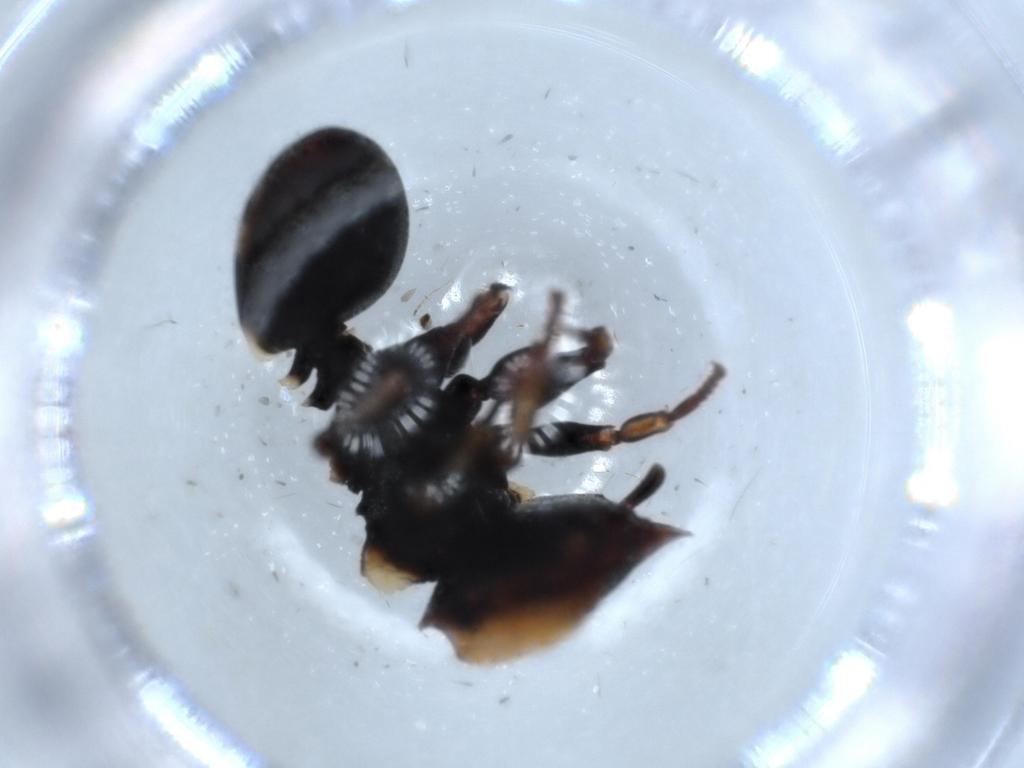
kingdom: Animalia
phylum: Arthropoda
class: Insecta
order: Hymenoptera
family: Formicidae
